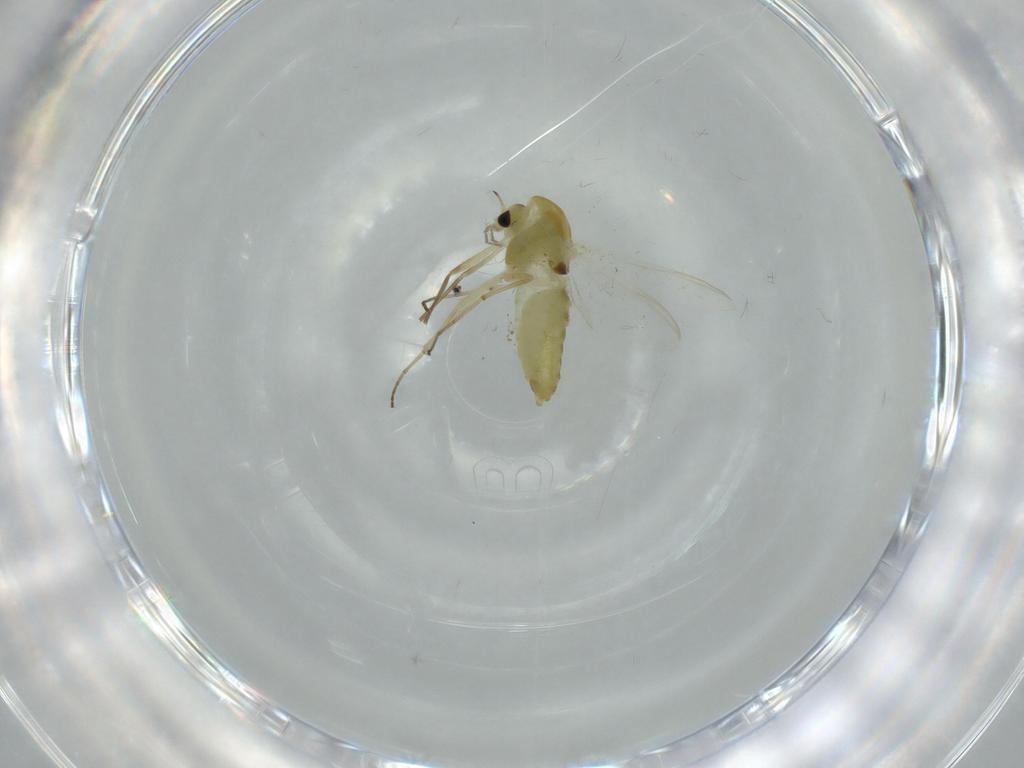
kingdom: Animalia
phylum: Arthropoda
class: Insecta
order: Diptera
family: Chironomidae
